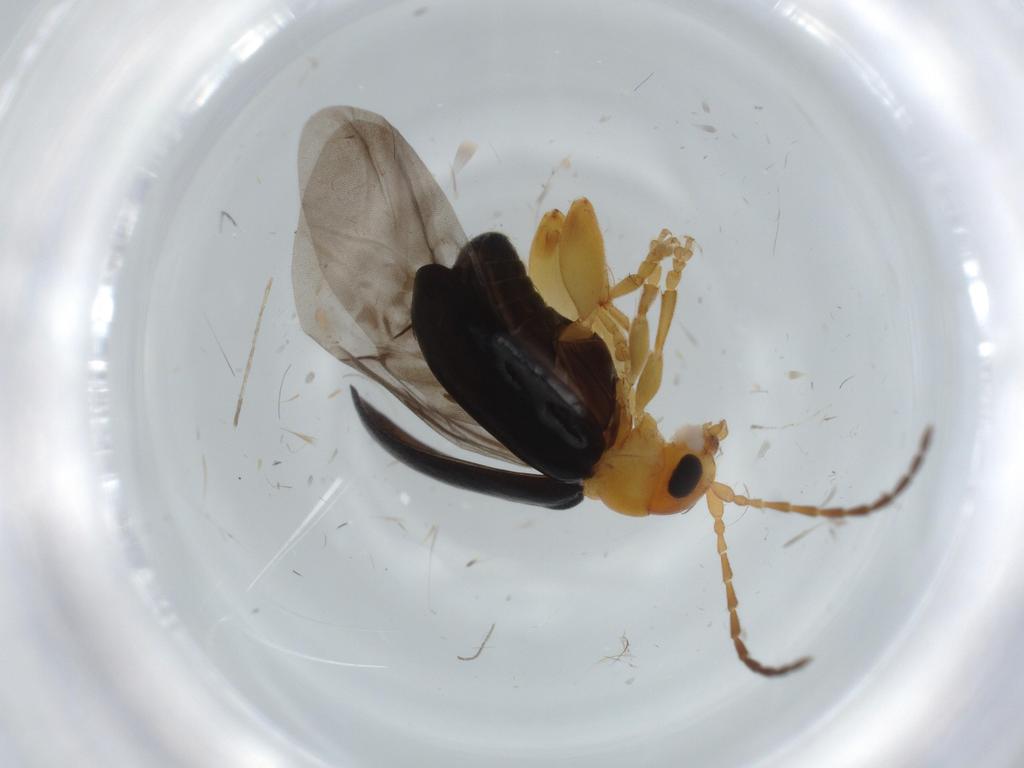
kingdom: Animalia
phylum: Arthropoda
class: Insecta
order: Coleoptera
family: Chrysomelidae
